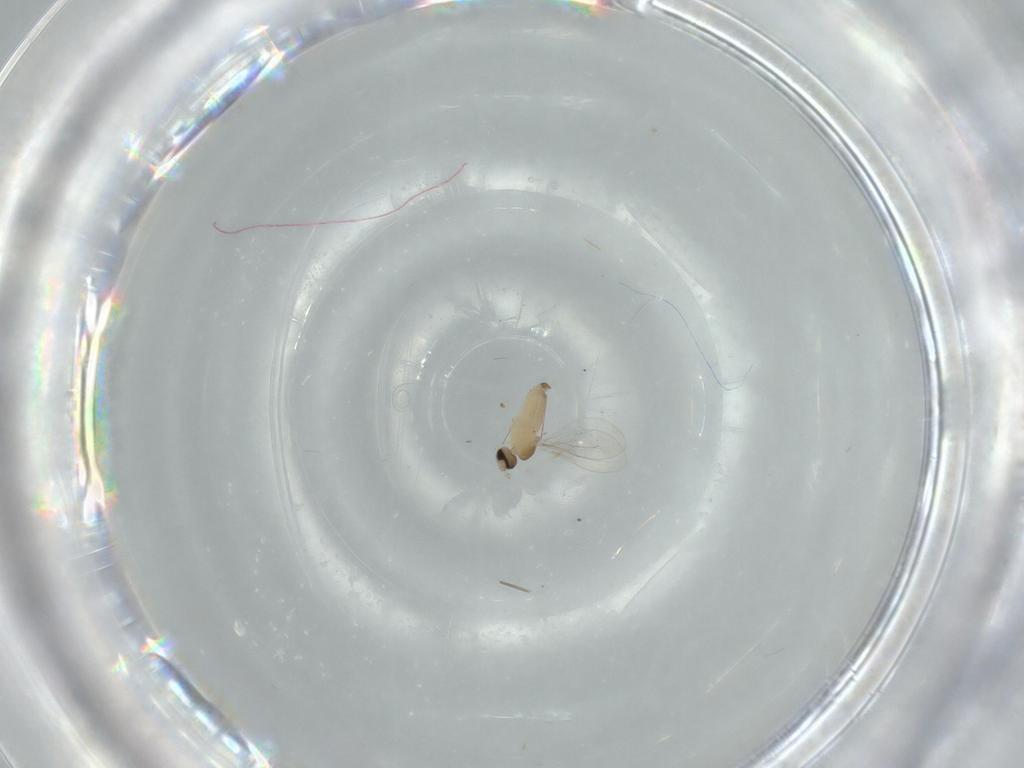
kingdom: Animalia
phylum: Arthropoda
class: Insecta
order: Diptera
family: Cecidomyiidae
